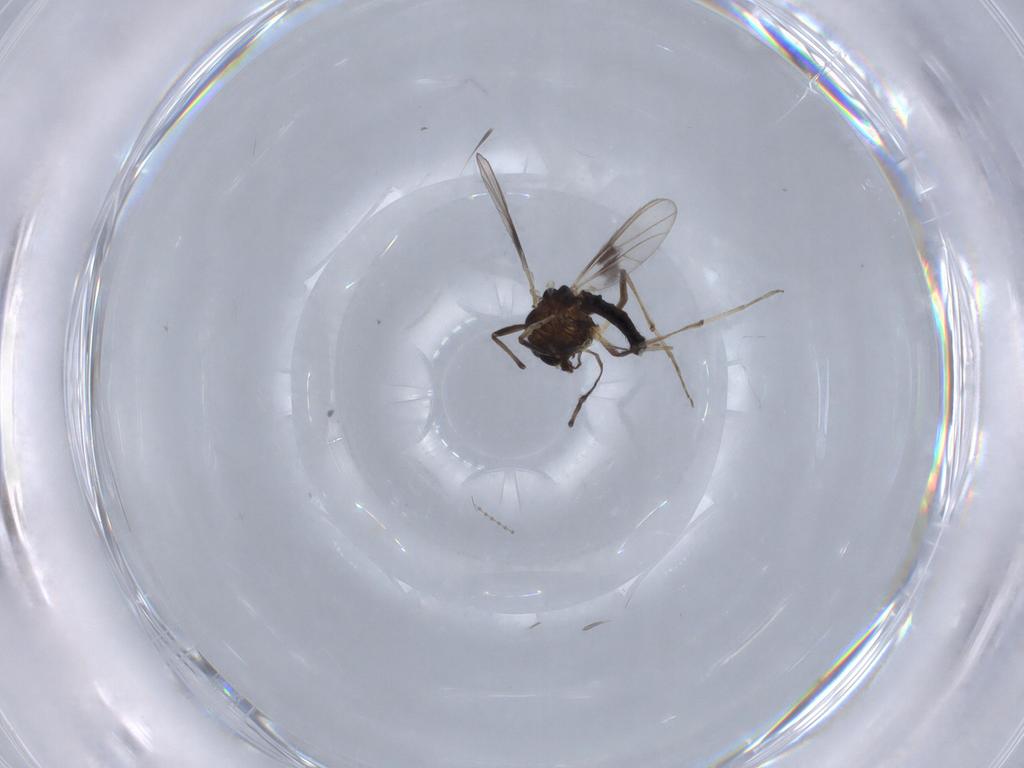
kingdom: Animalia
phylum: Arthropoda
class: Insecta
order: Diptera
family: Chironomidae
